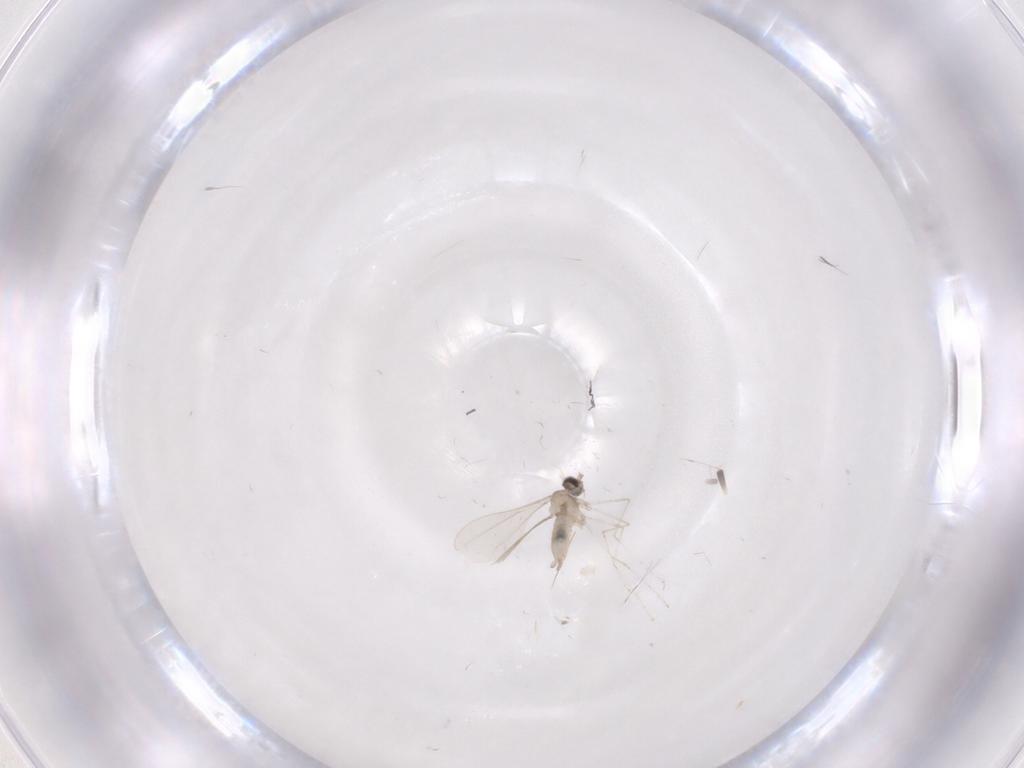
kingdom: Animalia
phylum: Arthropoda
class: Insecta
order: Diptera
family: Cecidomyiidae
